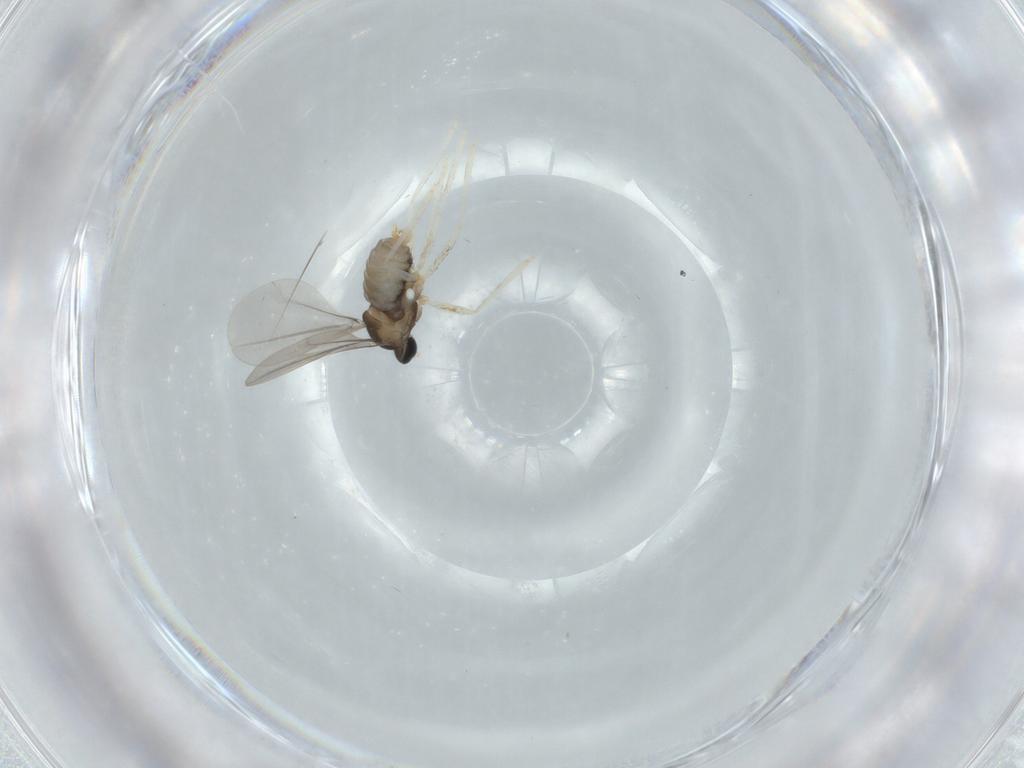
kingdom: Animalia
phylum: Arthropoda
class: Insecta
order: Diptera
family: Cecidomyiidae
